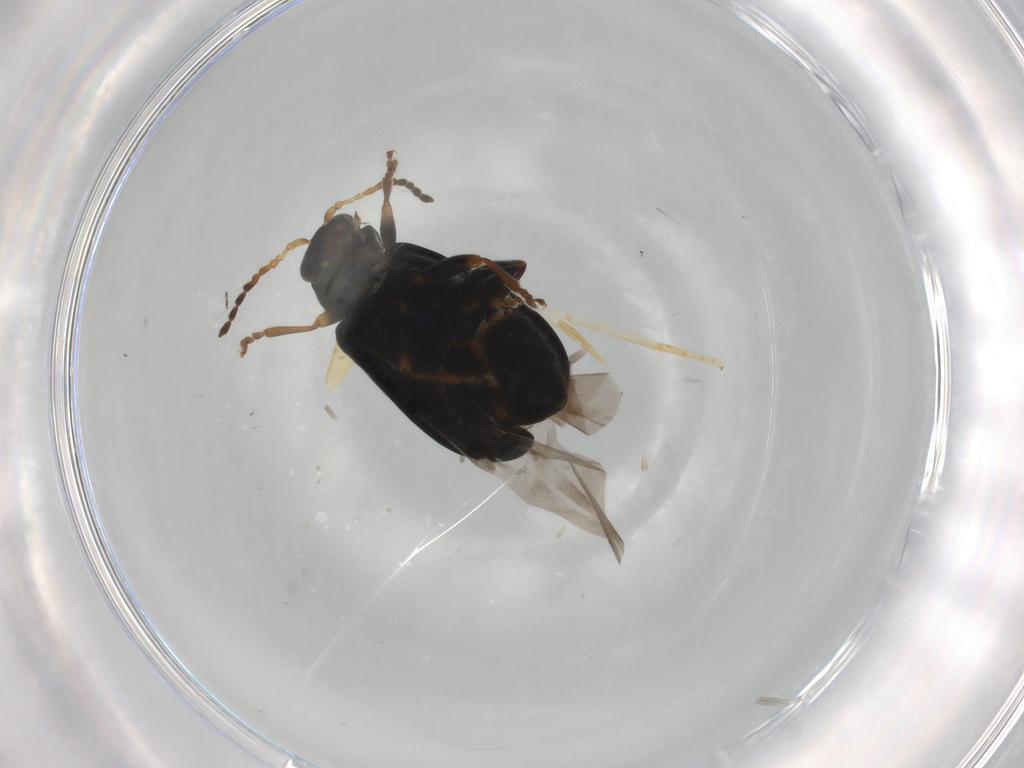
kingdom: Animalia
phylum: Arthropoda
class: Insecta
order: Coleoptera
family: Chrysomelidae
